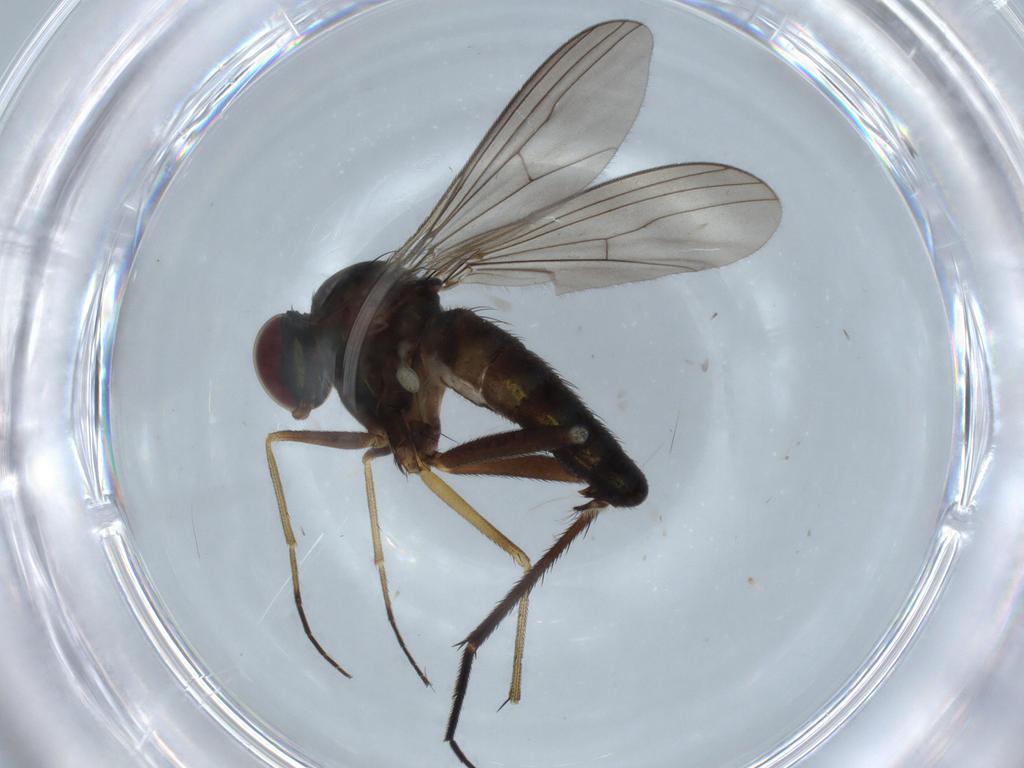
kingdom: Animalia
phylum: Arthropoda
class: Insecta
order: Diptera
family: Dolichopodidae
